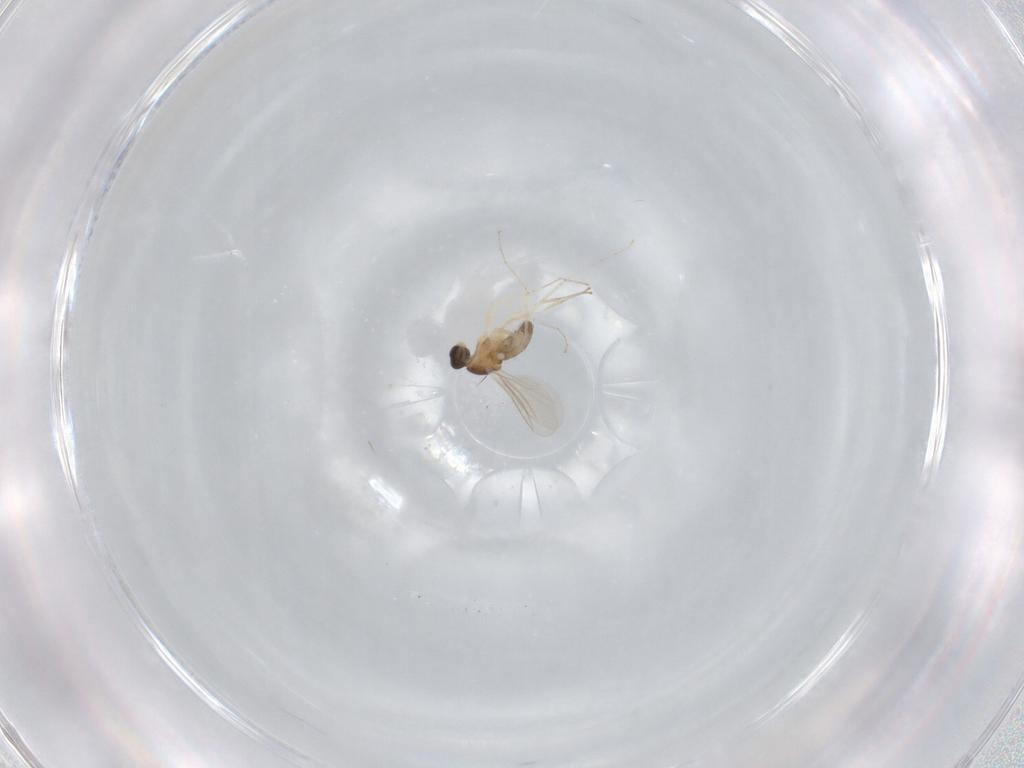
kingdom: Animalia
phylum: Arthropoda
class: Insecta
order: Diptera
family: Cecidomyiidae
